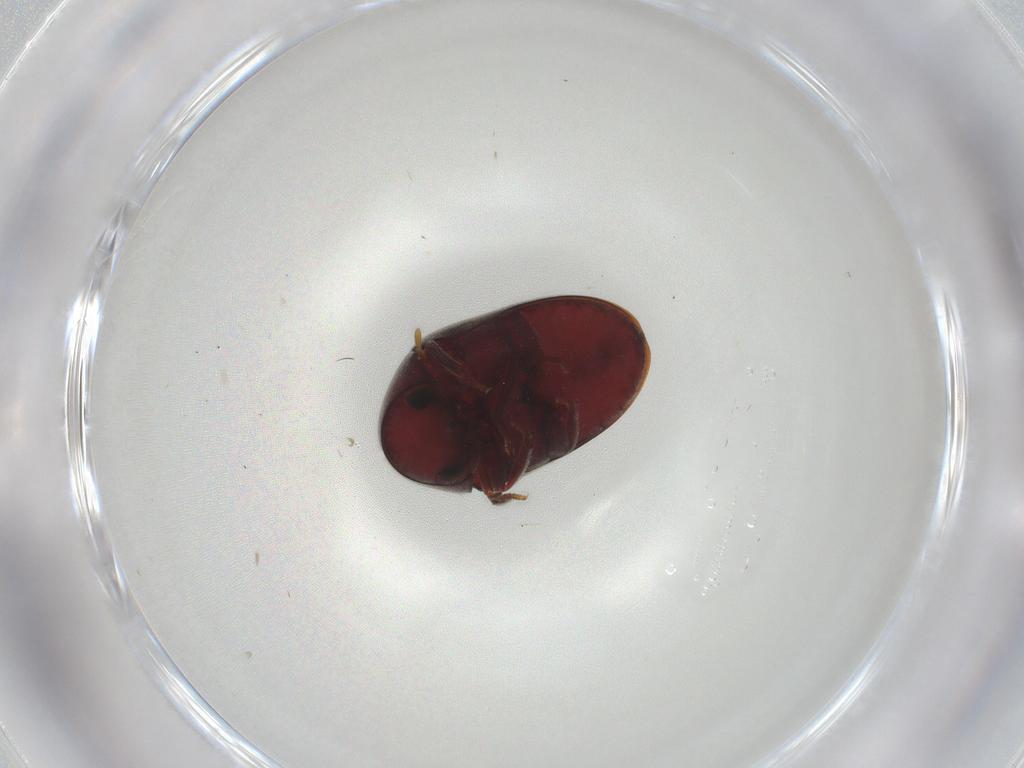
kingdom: Animalia
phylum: Arthropoda
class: Insecta
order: Coleoptera
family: Ptinidae
